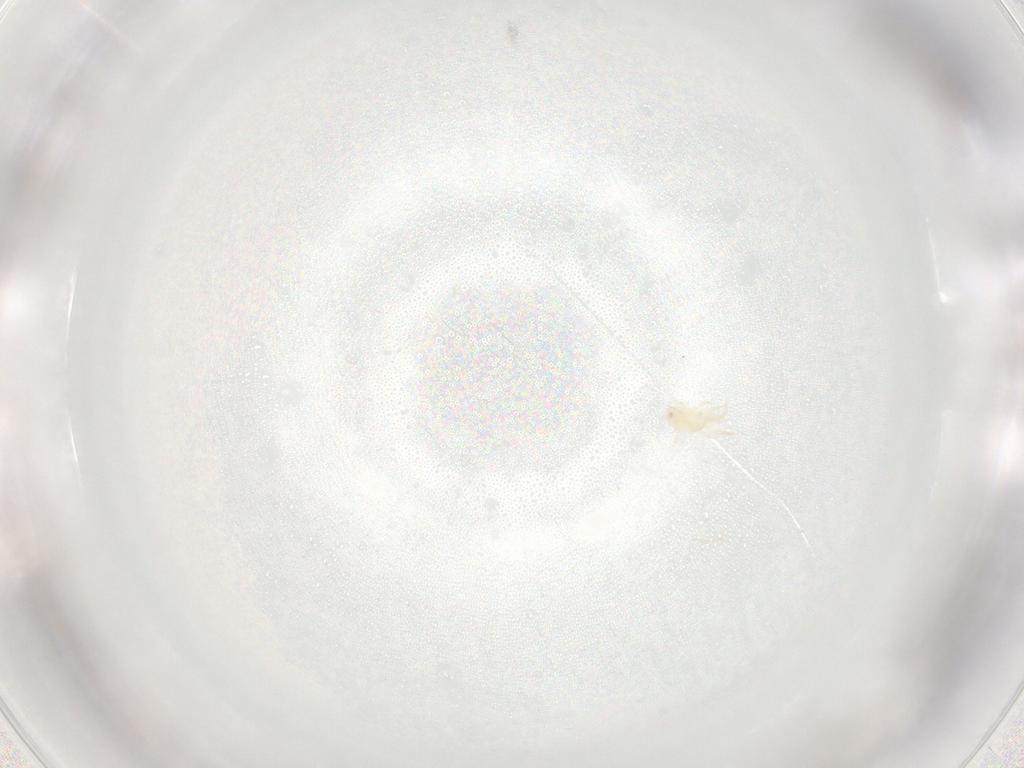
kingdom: Animalia
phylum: Arthropoda
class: Arachnida
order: Mesostigmata
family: Phytoseiidae
